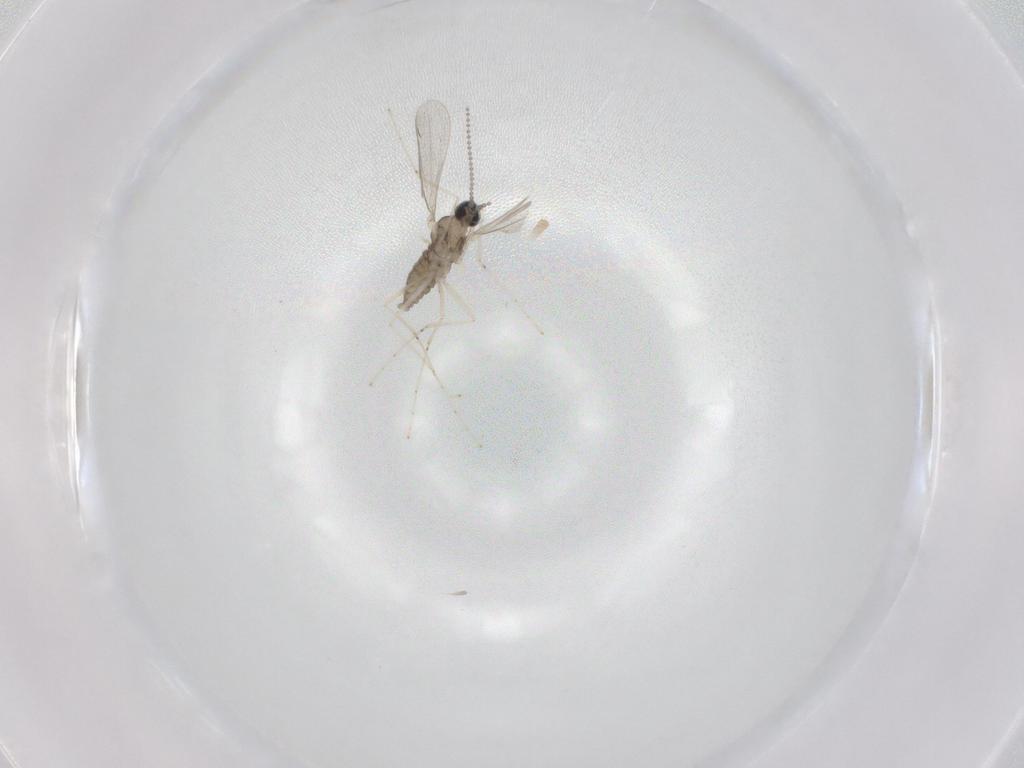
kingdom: Animalia
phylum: Arthropoda
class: Insecta
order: Diptera
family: Cecidomyiidae
